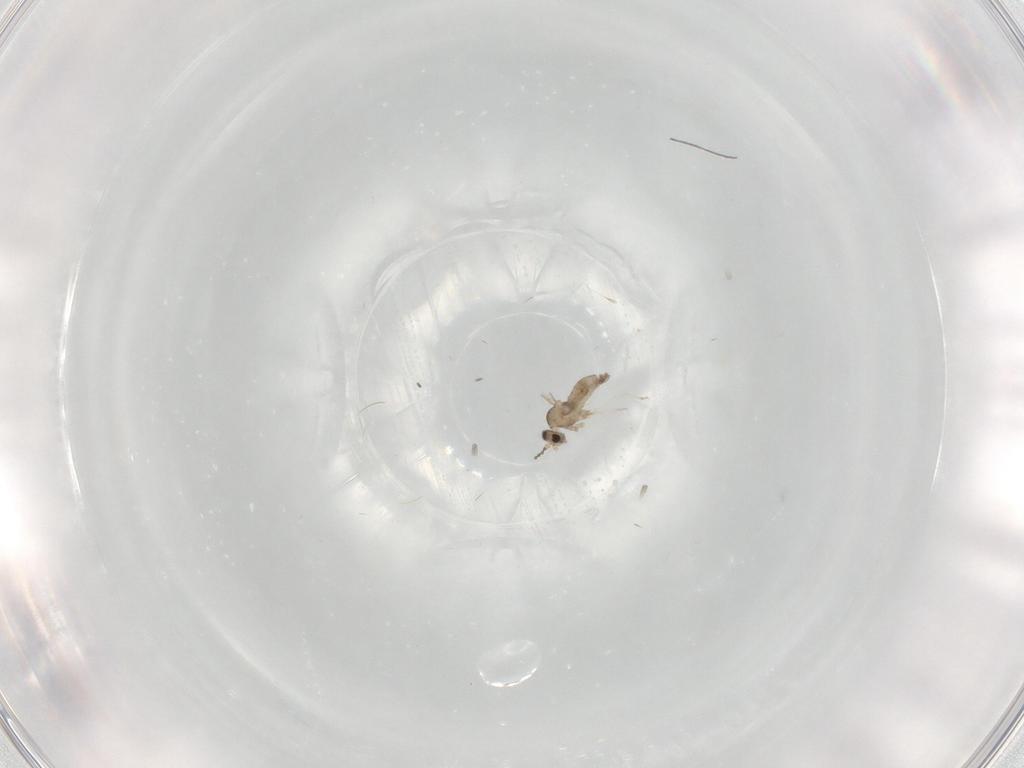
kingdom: Animalia
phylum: Arthropoda
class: Insecta
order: Diptera
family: Cecidomyiidae
